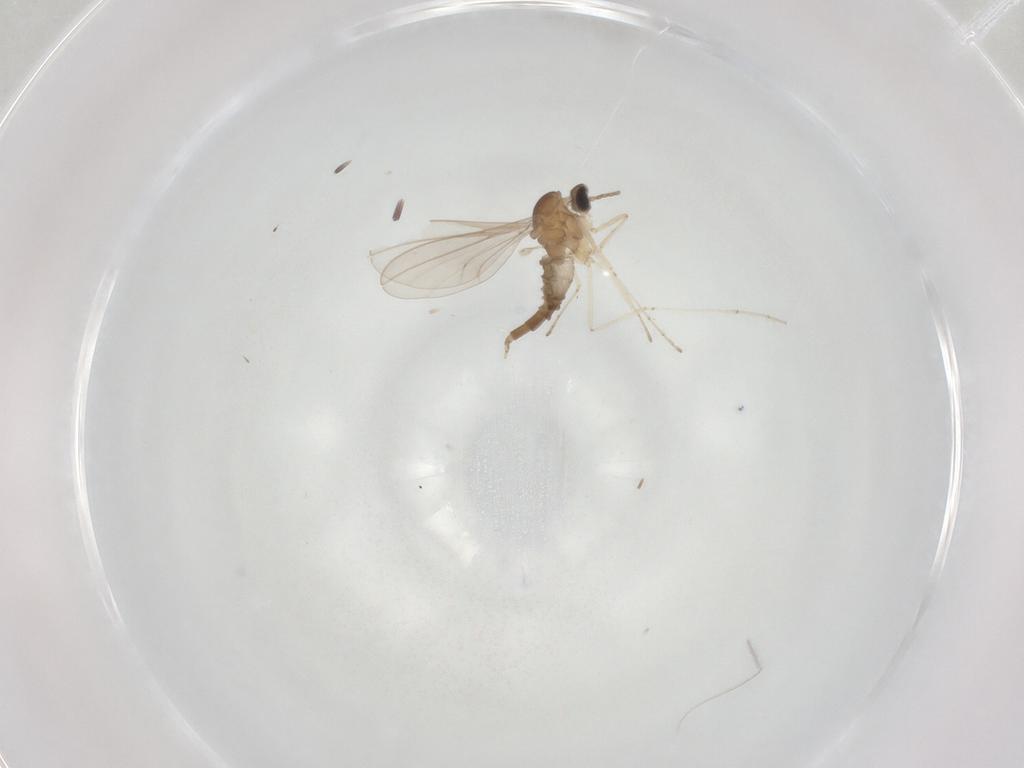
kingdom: Animalia
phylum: Arthropoda
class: Insecta
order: Diptera
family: Cecidomyiidae
